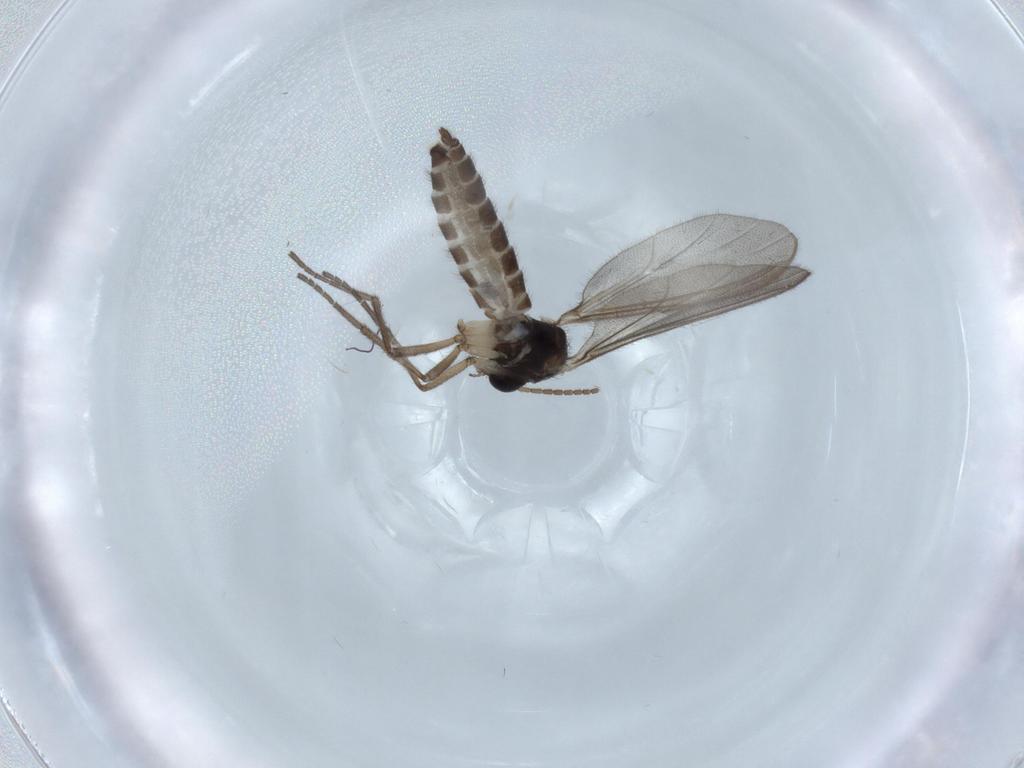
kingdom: Animalia
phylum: Arthropoda
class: Insecta
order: Diptera
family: Mycetophilidae
